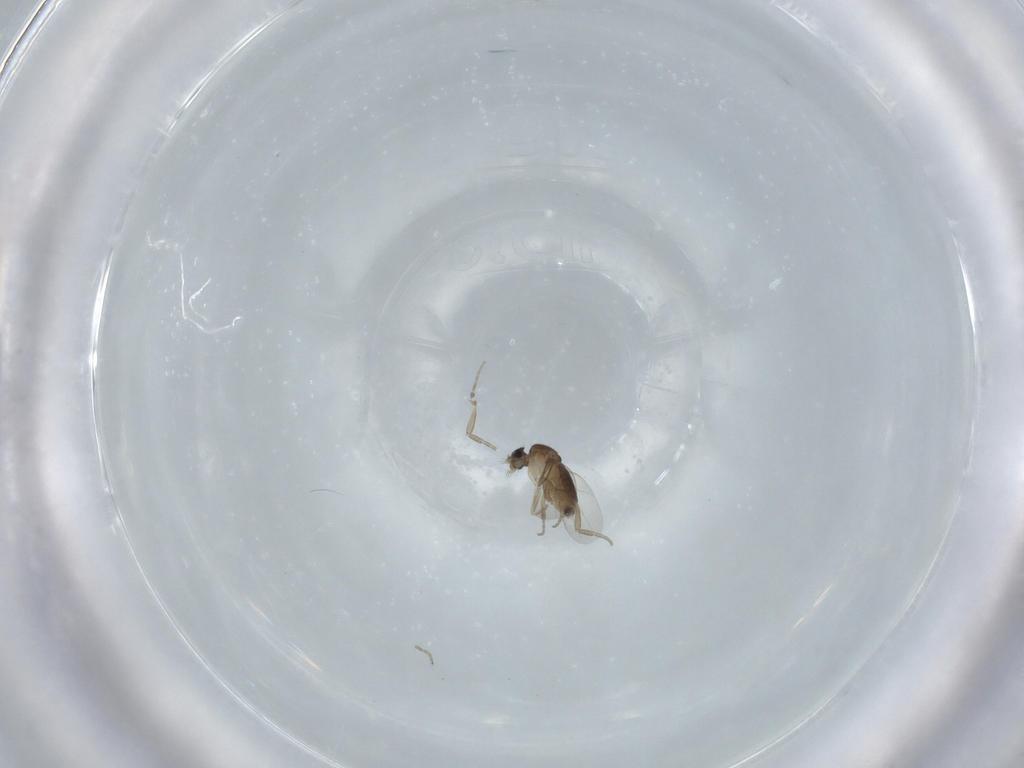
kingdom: Animalia
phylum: Arthropoda
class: Insecta
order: Diptera
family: Phoridae
